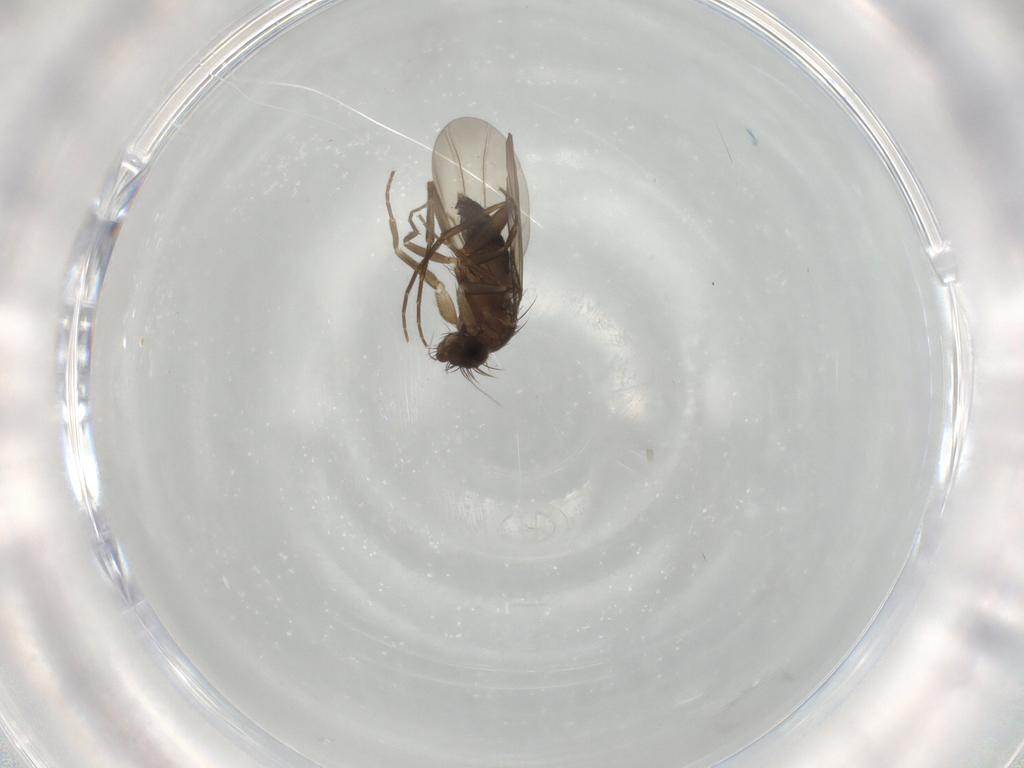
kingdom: Animalia
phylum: Arthropoda
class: Insecta
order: Diptera
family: Phoridae
